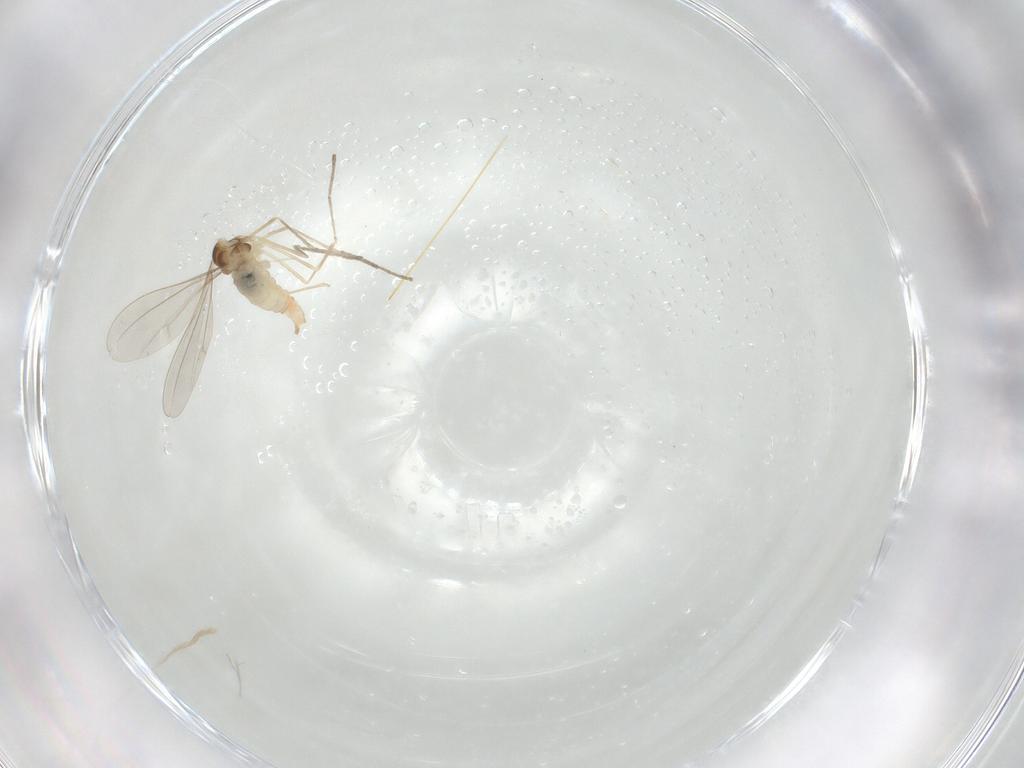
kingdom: Animalia
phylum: Arthropoda
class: Insecta
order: Diptera
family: Cecidomyiidae
